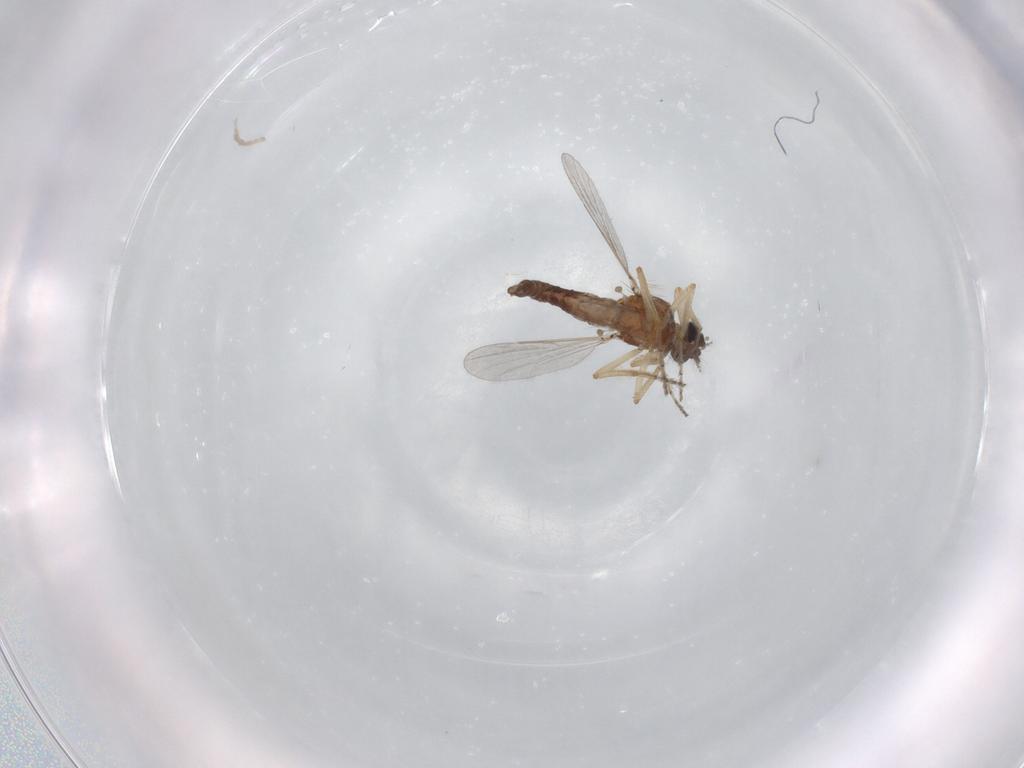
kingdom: Animalia
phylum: Arthropoda
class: Insecta
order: Diptera
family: Ceratopogonidae
